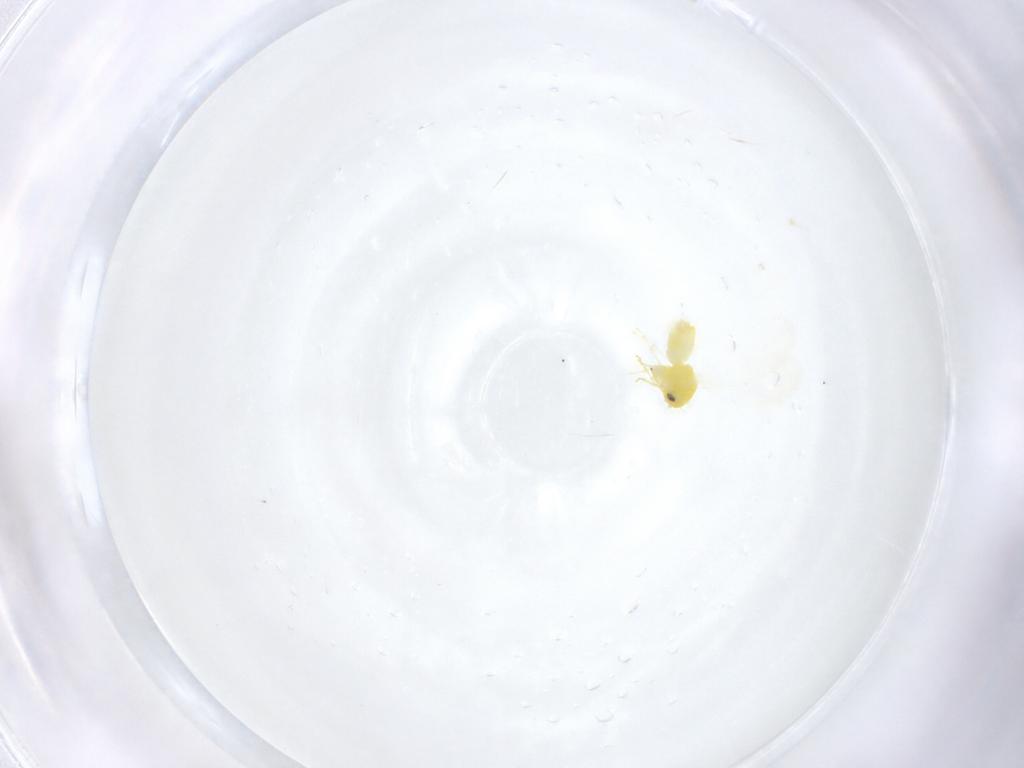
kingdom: Animalia
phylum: Arthropoda
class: Insecta
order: Hemiptera
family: Aleyrodidae
